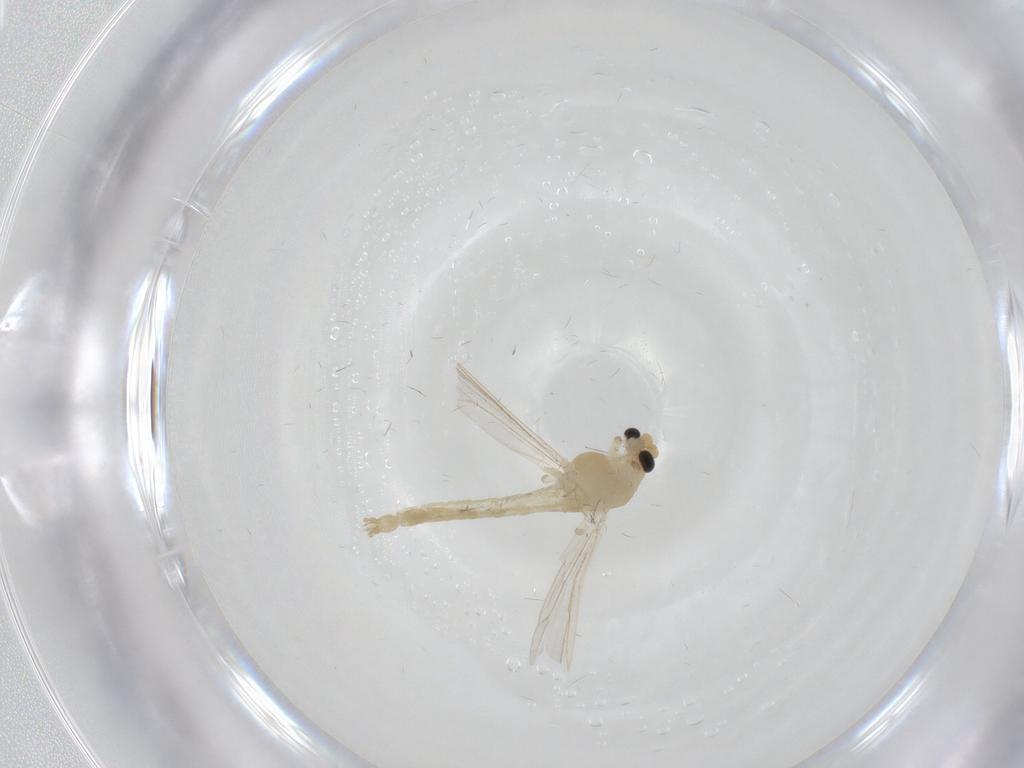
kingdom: Animalia
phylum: Arthropoda
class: Insecta
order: Diptera
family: Chironomidae
